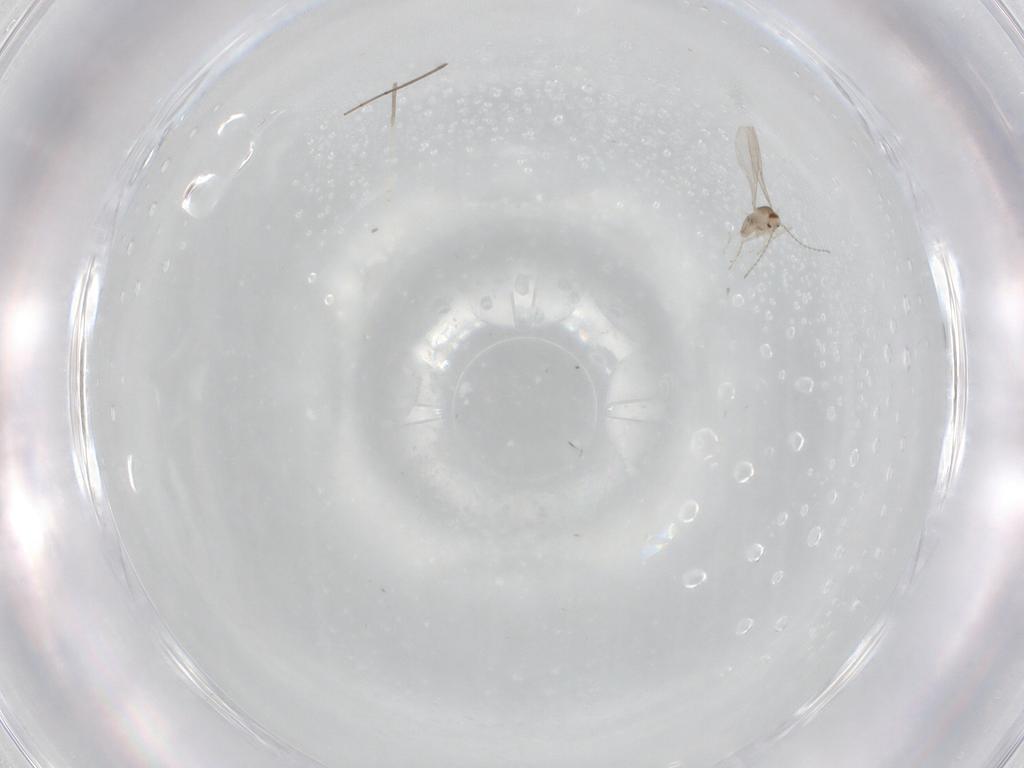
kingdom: Animalia
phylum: Arthropoda
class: Insecta
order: Diptera
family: Cecidomyiidae
